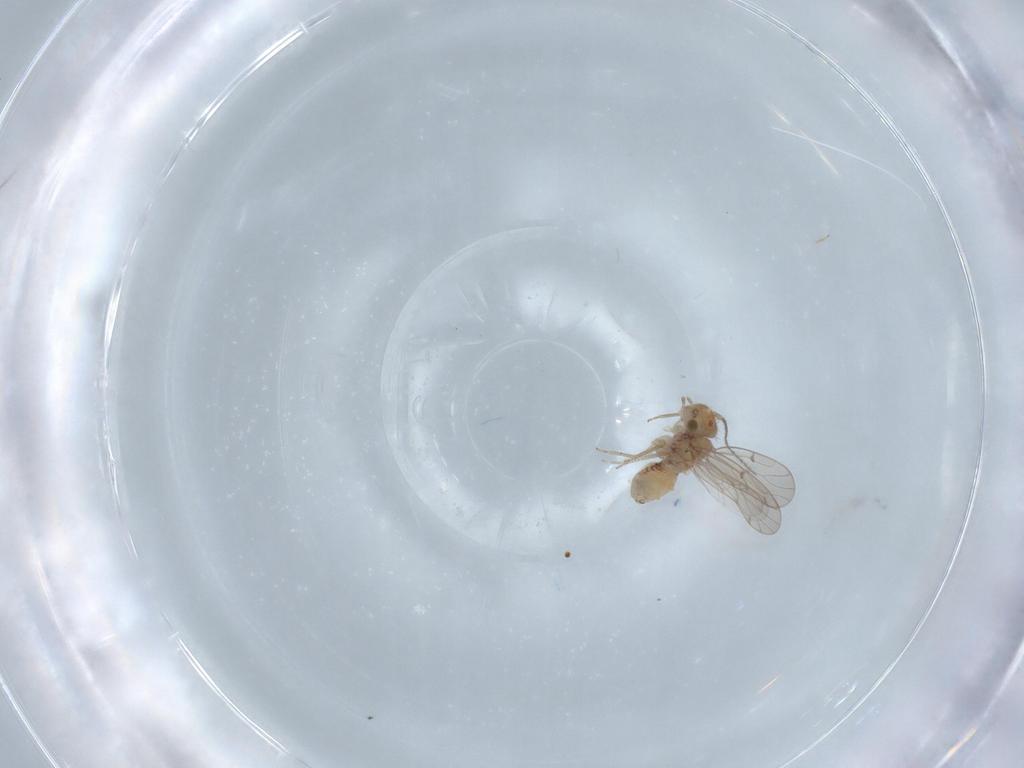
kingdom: Animalia
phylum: Arthropoda
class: Insecta
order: Psocodea
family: Ectopsocidae
